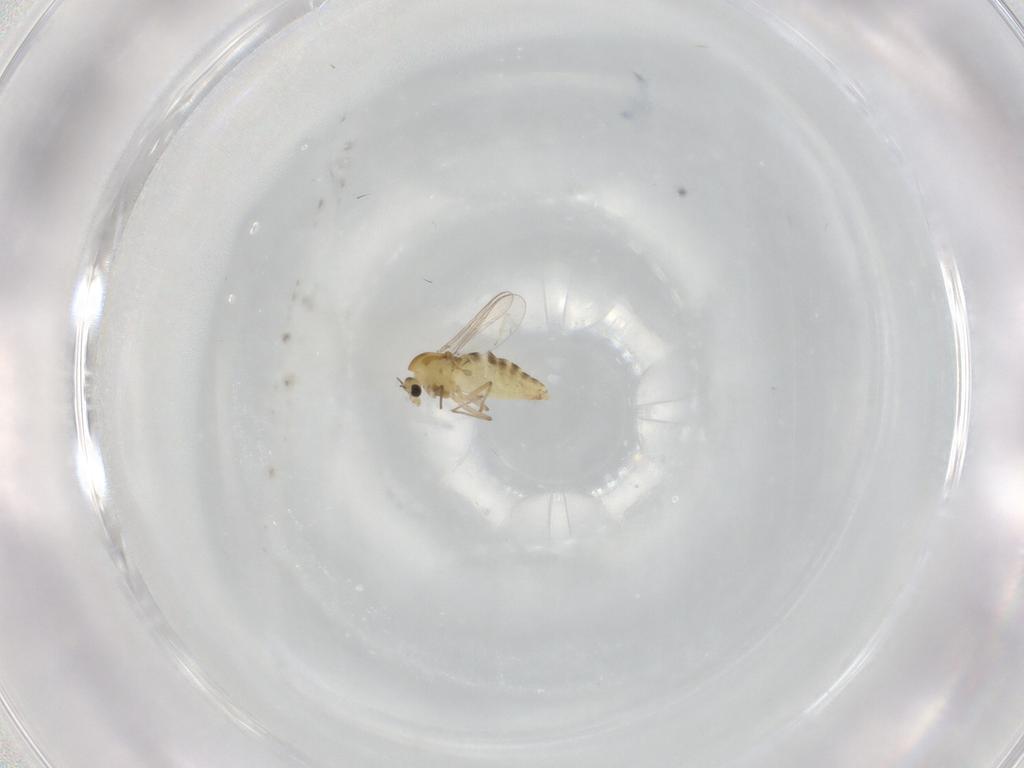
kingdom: Animalia
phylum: Arthropoda
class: Insecta
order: Diptera
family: Chironomidae
